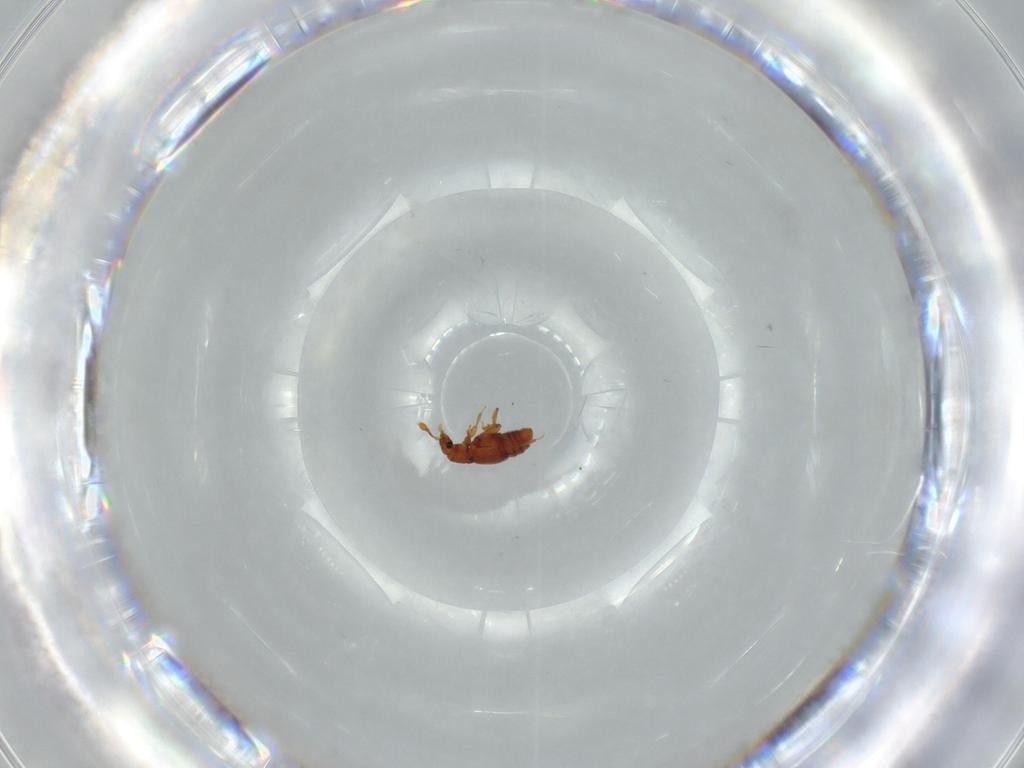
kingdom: Animalia
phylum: Arthropoda
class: Insecta
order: Coleoptera
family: Staphylinidae
